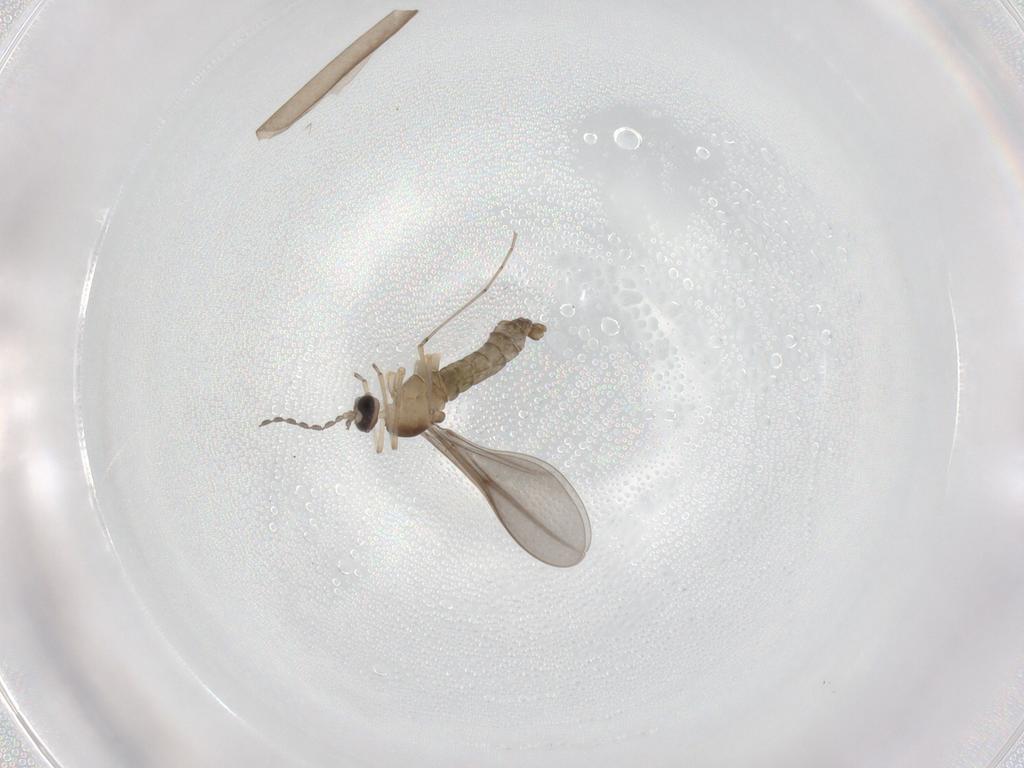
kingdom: Animalia
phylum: Arthropoda
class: Insecta
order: Diptera
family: Cecidomyiidae
